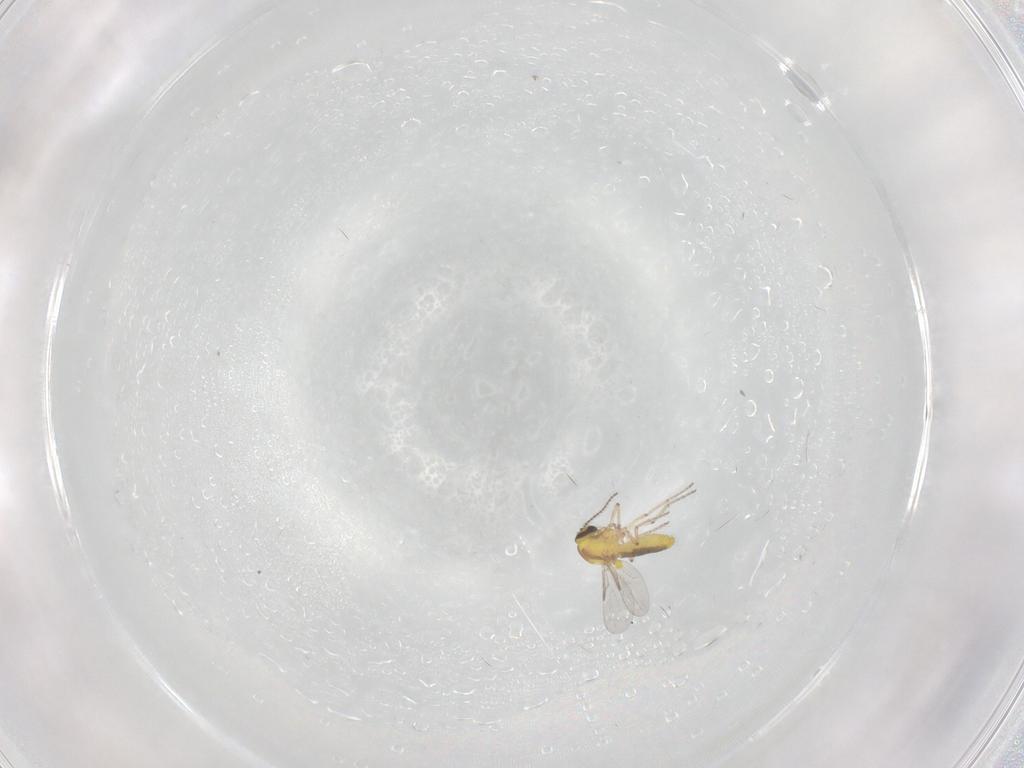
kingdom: Animalia
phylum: Arthropoda
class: Insecta
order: Diptera
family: Ceratopogonidae
